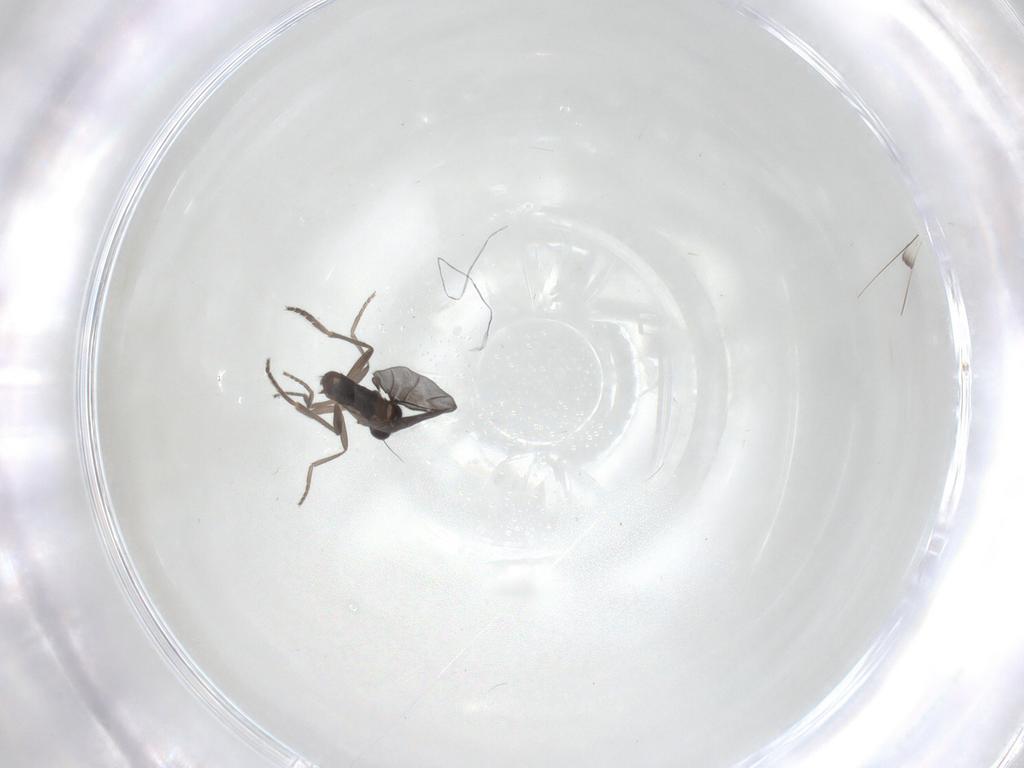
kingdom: Animalia
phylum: Arthropoda
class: Insecta
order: Diptera
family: Phoridae
